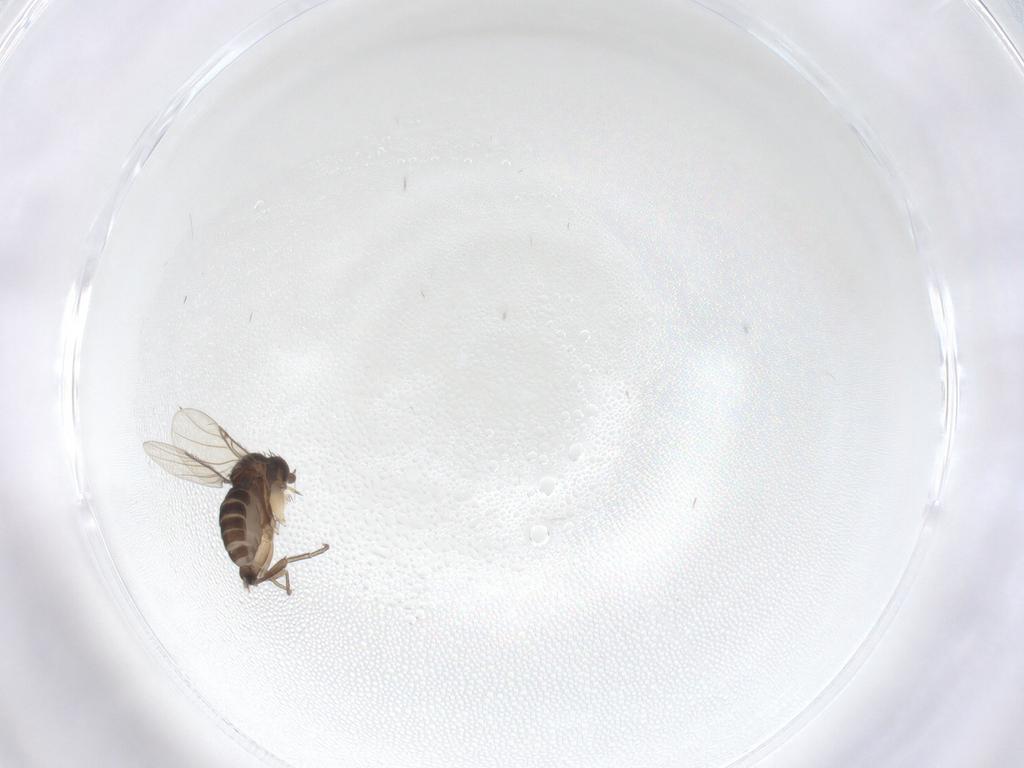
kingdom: Animalia
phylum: Arthropoda
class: Insecta
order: Diptera
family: Phoridae
